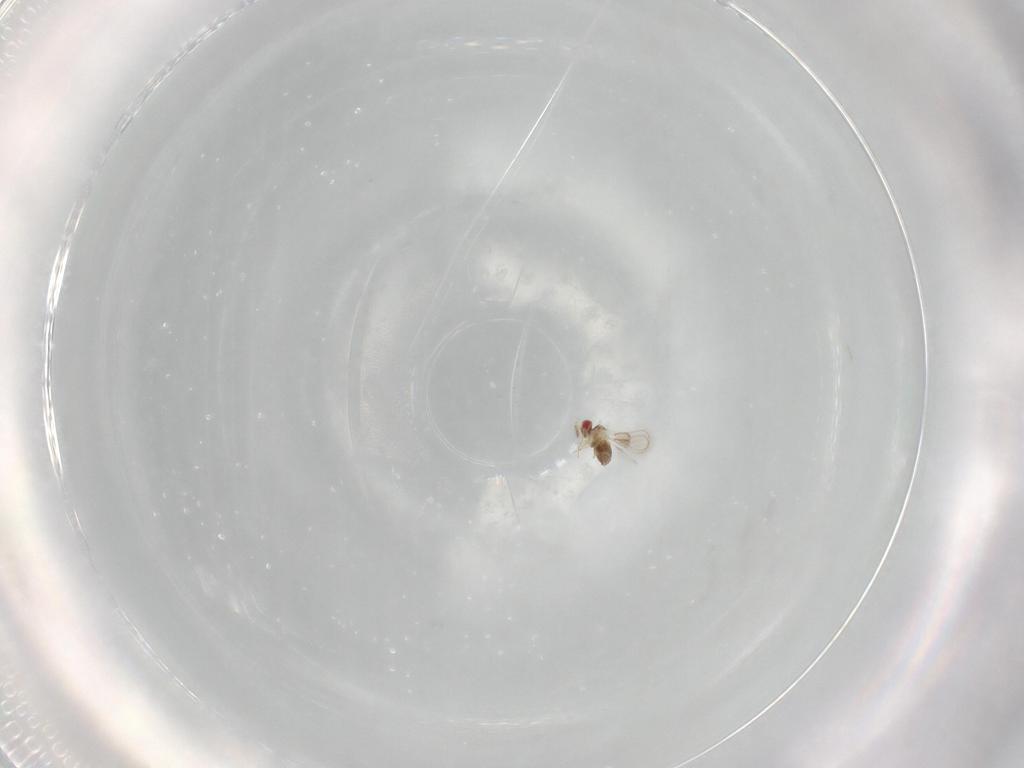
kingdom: Animalia
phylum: Arthropoda
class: Insecta
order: Hymenoptera
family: Formicidae
